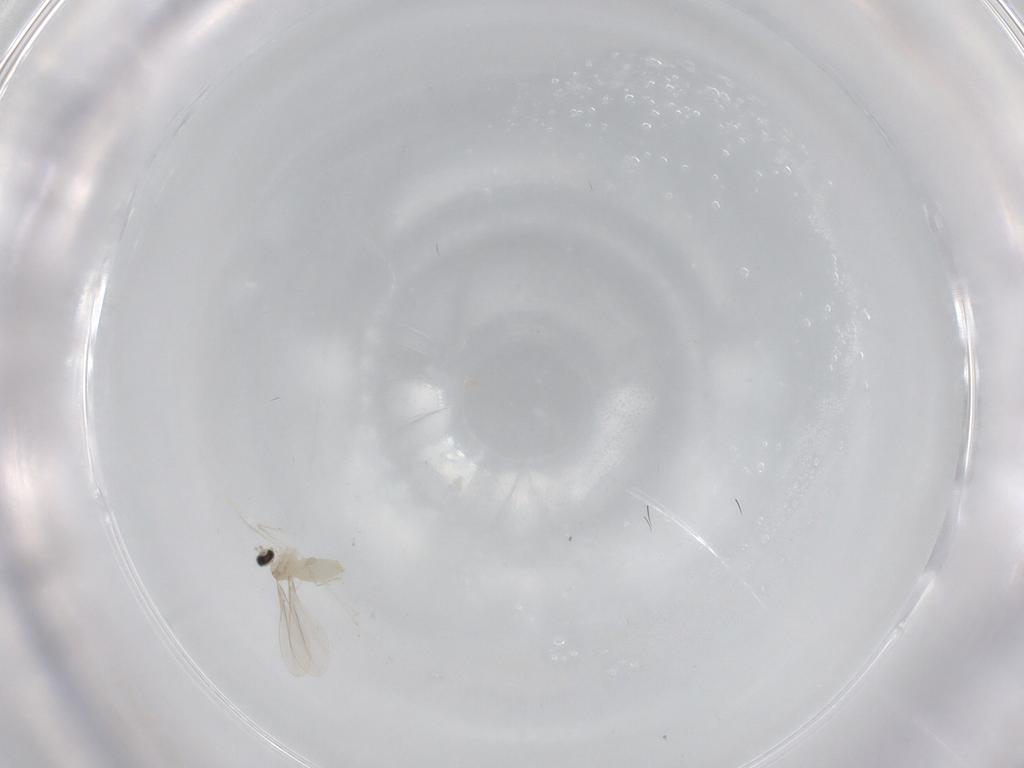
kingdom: Animalia
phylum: Arthropoda
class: Insecta
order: Diptera
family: Cecidomyiidae
